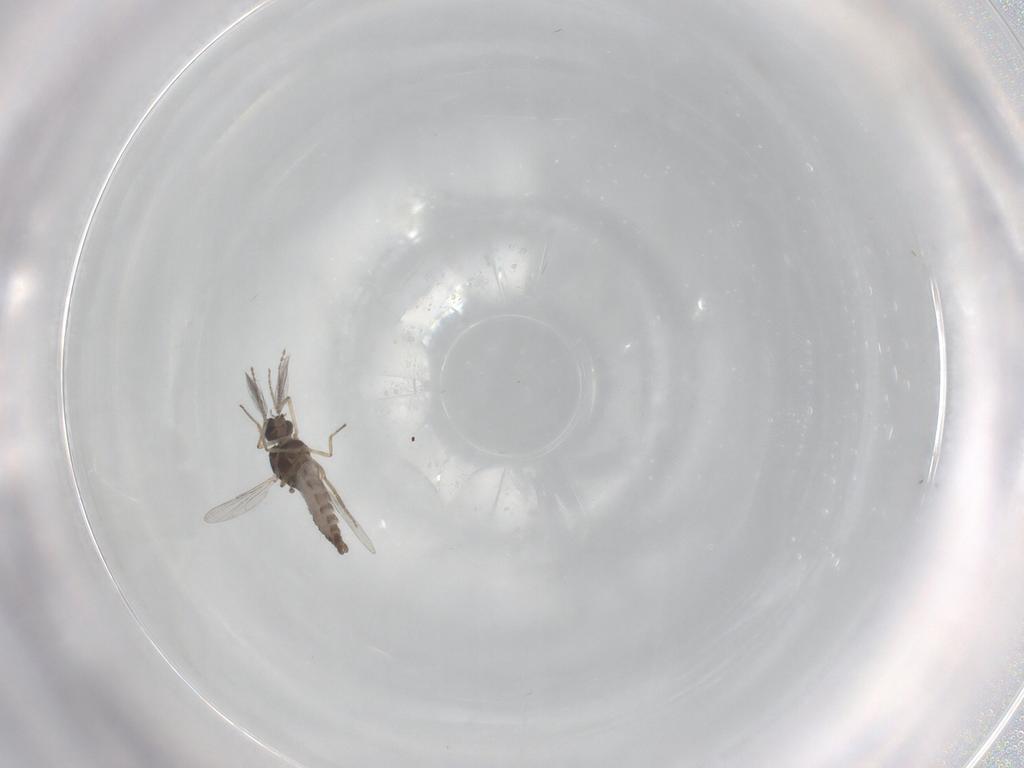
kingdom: Animalia
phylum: Arthropoda
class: Insecta
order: Diptera
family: Ceratopogonidae
